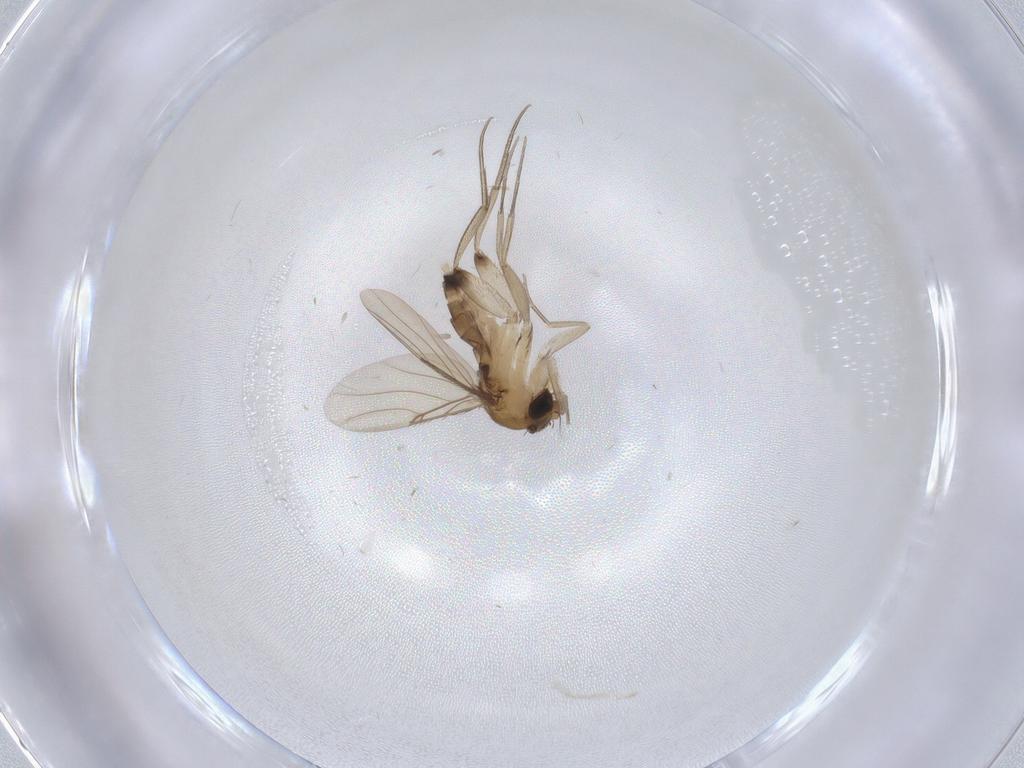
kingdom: Animalia
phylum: Arthropoda
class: Insecta
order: Diptera
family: Phoridae
